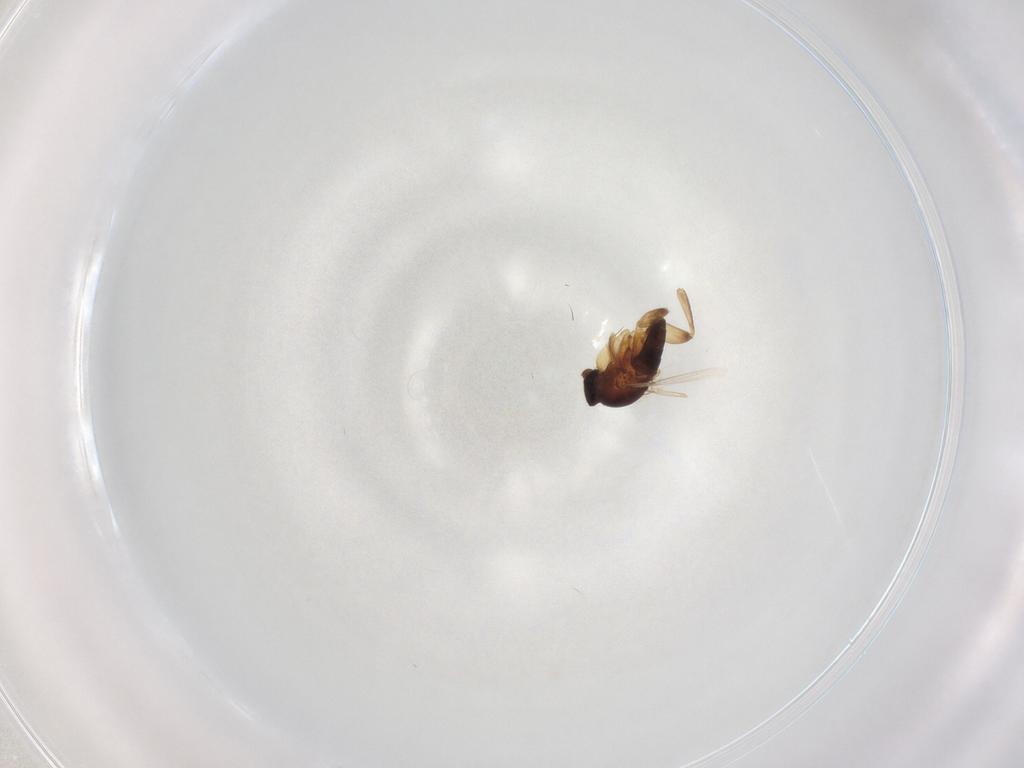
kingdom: Animalia
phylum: Arthropoda
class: Insecta
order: Diptera
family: Phoridae
